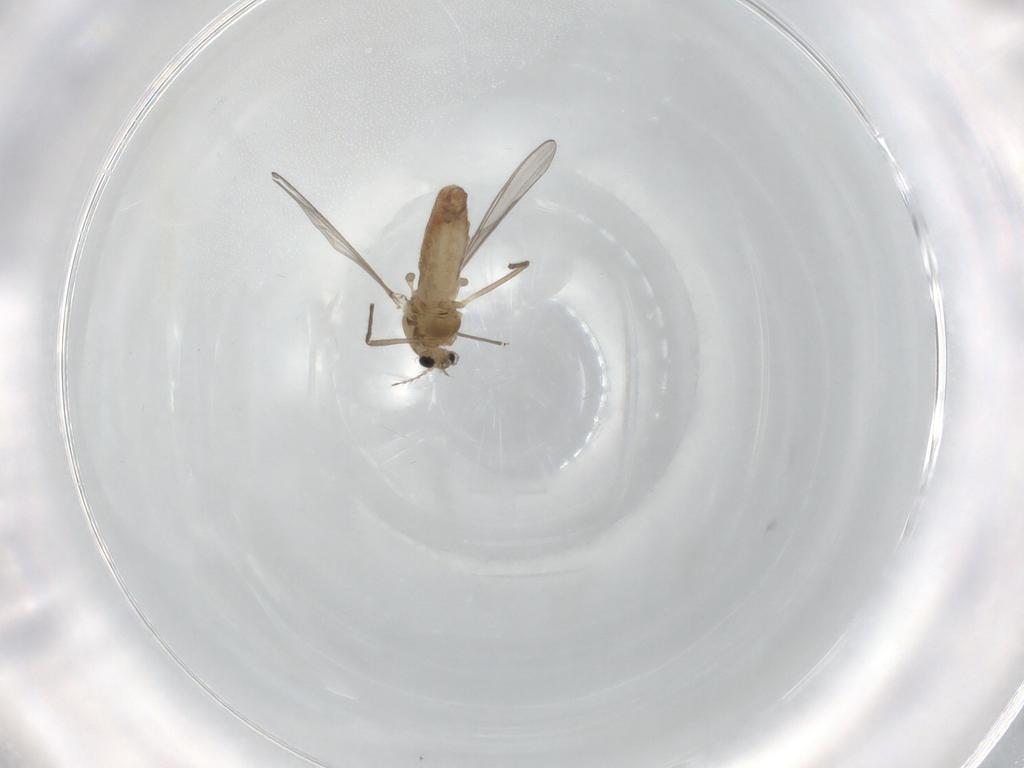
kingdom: Animalia
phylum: Arthropoda
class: Insecta
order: Diptera
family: Chironomidae
